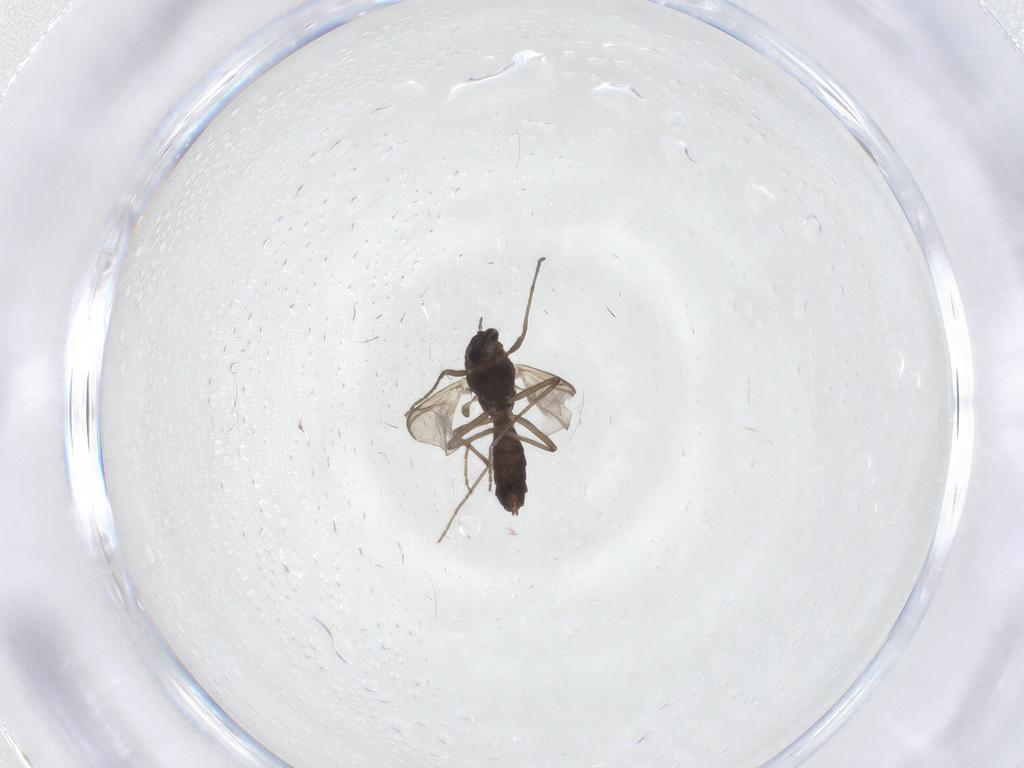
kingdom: Animalia
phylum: Arthropoda
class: Insecta
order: Diptera
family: Chironomidae
